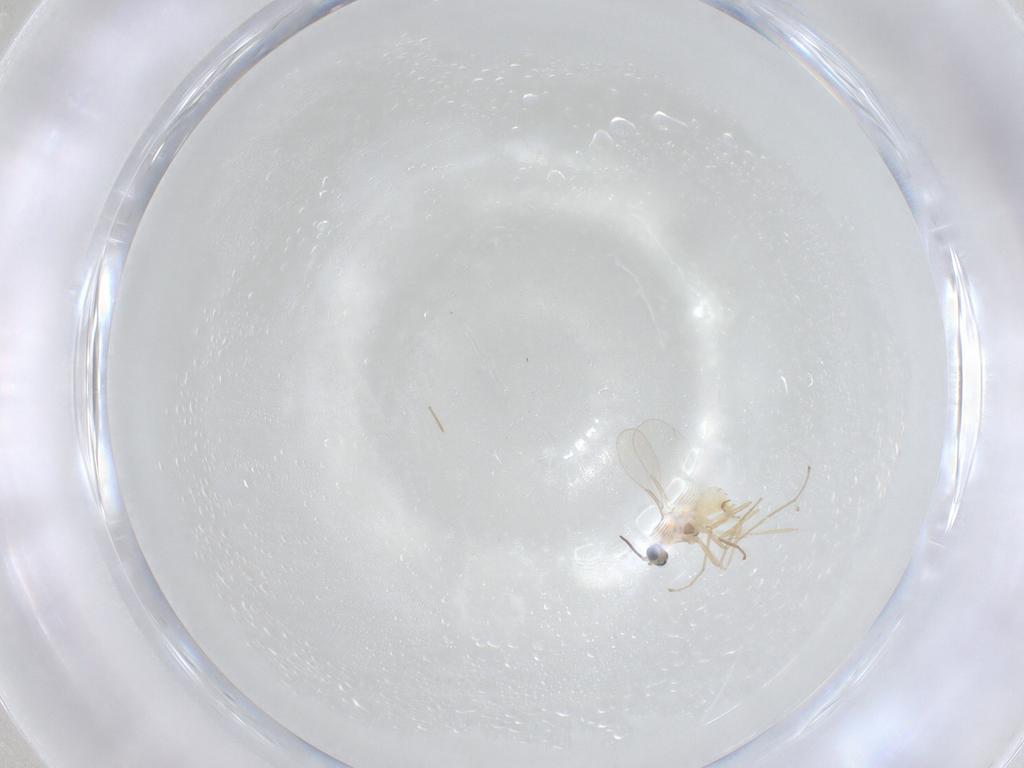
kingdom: Animalia
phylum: Arthropoda
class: Insecta
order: Diptera
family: Cecidomyiidae
